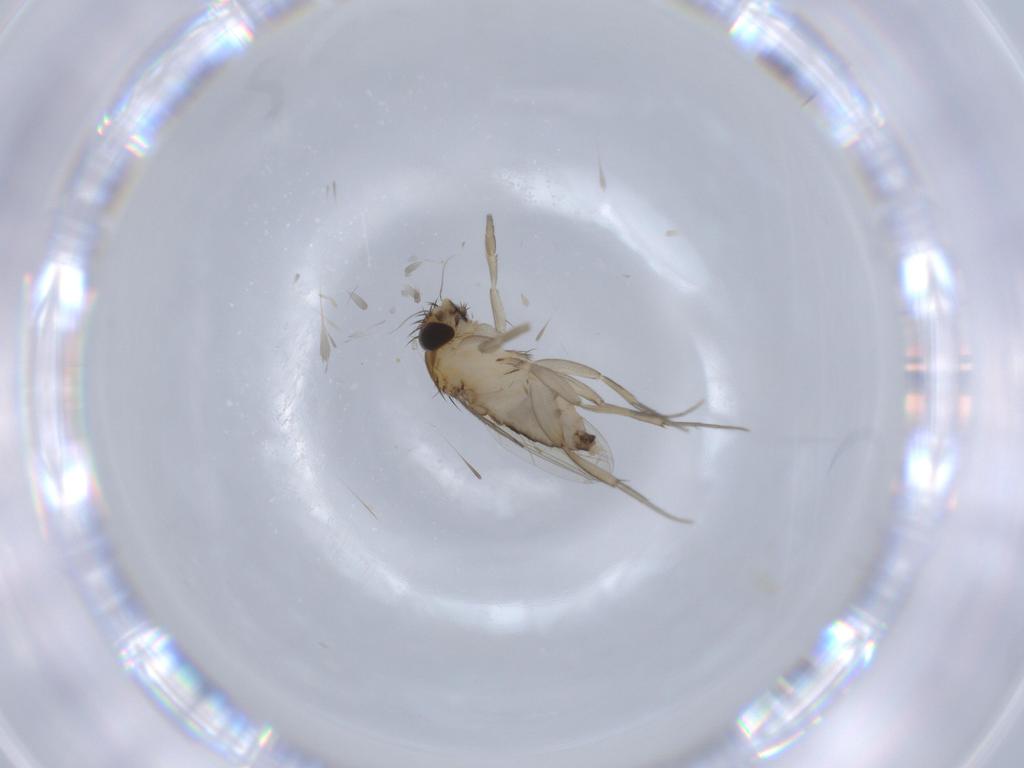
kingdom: Animalia
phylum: Arthropoda
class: Insecta
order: Diptera
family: Phoridae
